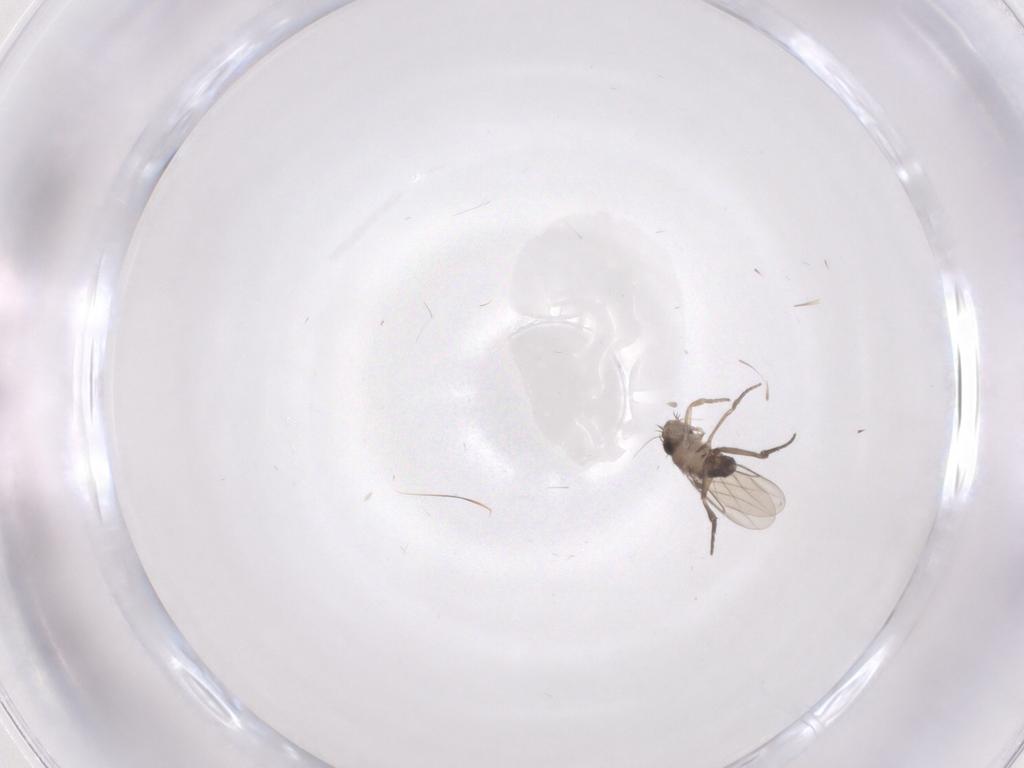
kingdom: Animalia
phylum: Arthropoda
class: Insecta
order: Diptera
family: Phoridae
